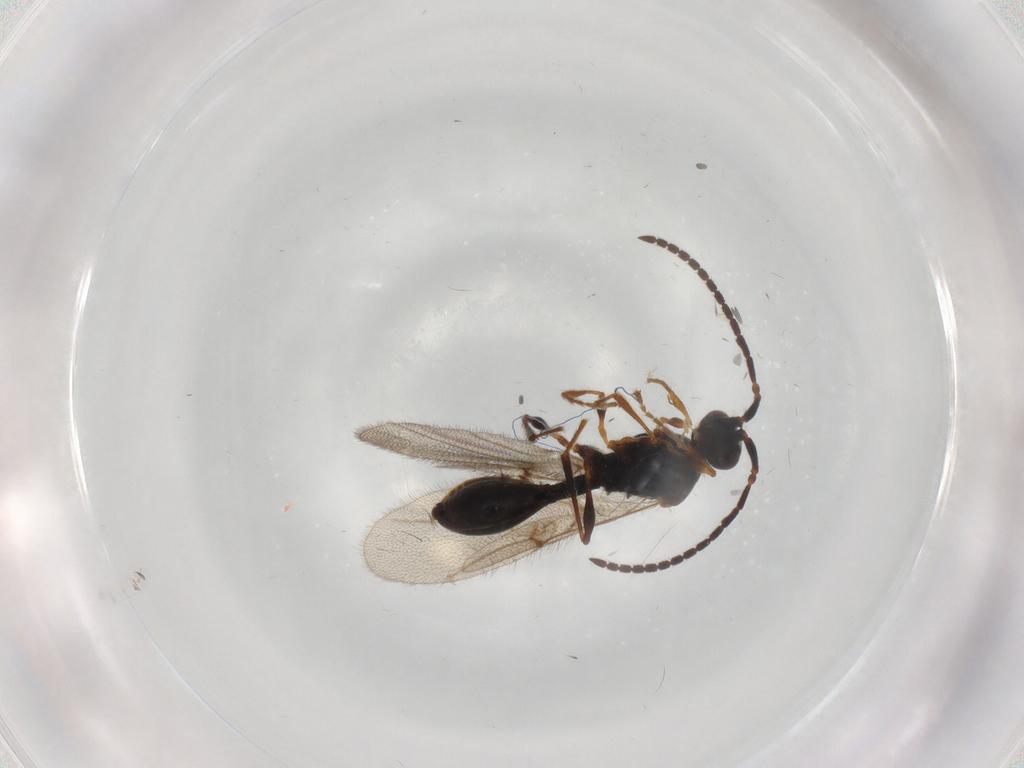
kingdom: Animalia
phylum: Arthropoda
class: Insecta
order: Hymenoptera
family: Diapriidae
